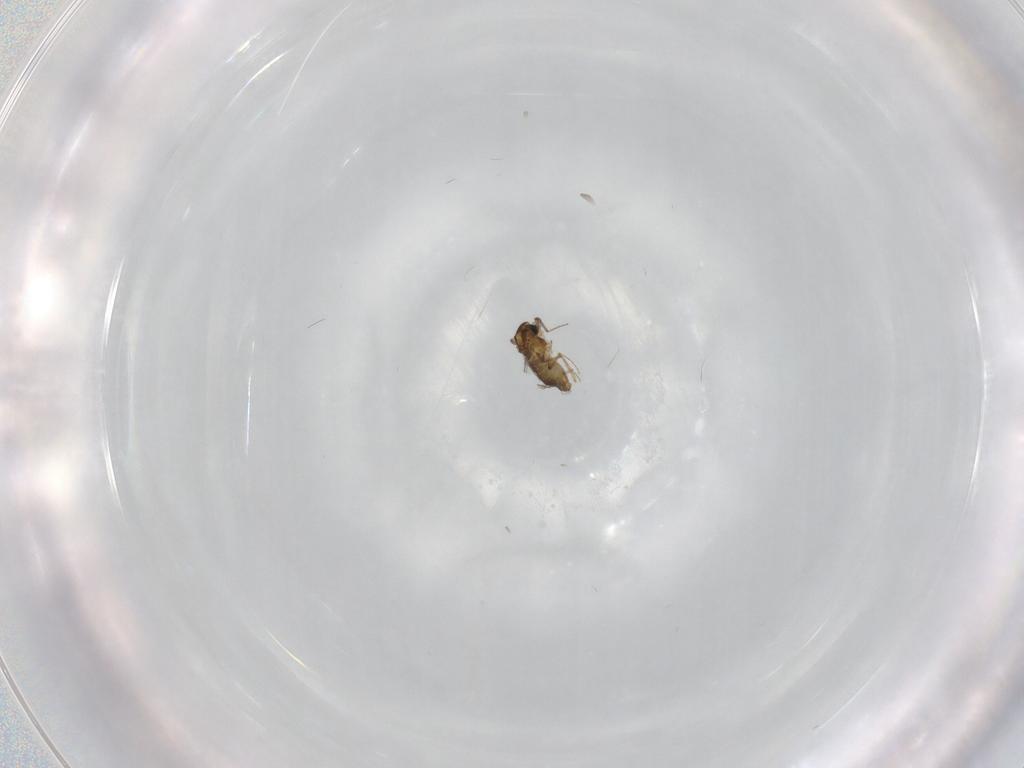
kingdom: Animalia
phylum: Arthropoda
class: Insecta
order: Diptera
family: Chironomidae
